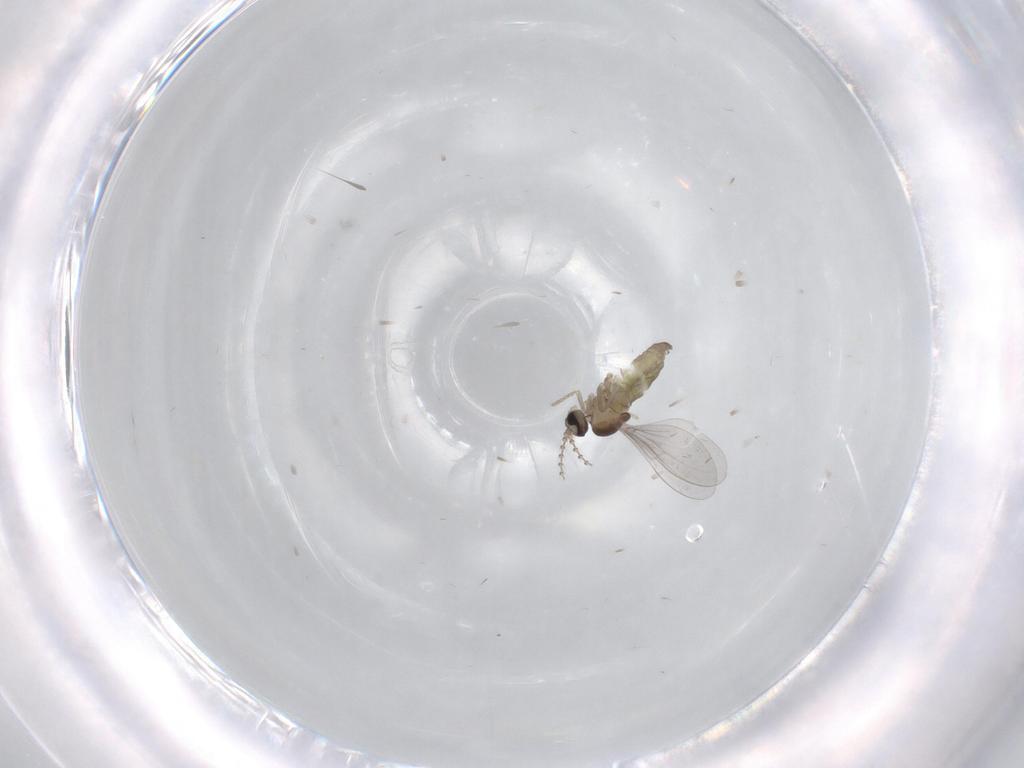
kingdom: Animalia
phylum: Arthropoda
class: Insecta
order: Diptera
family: Cecidomyiidae
